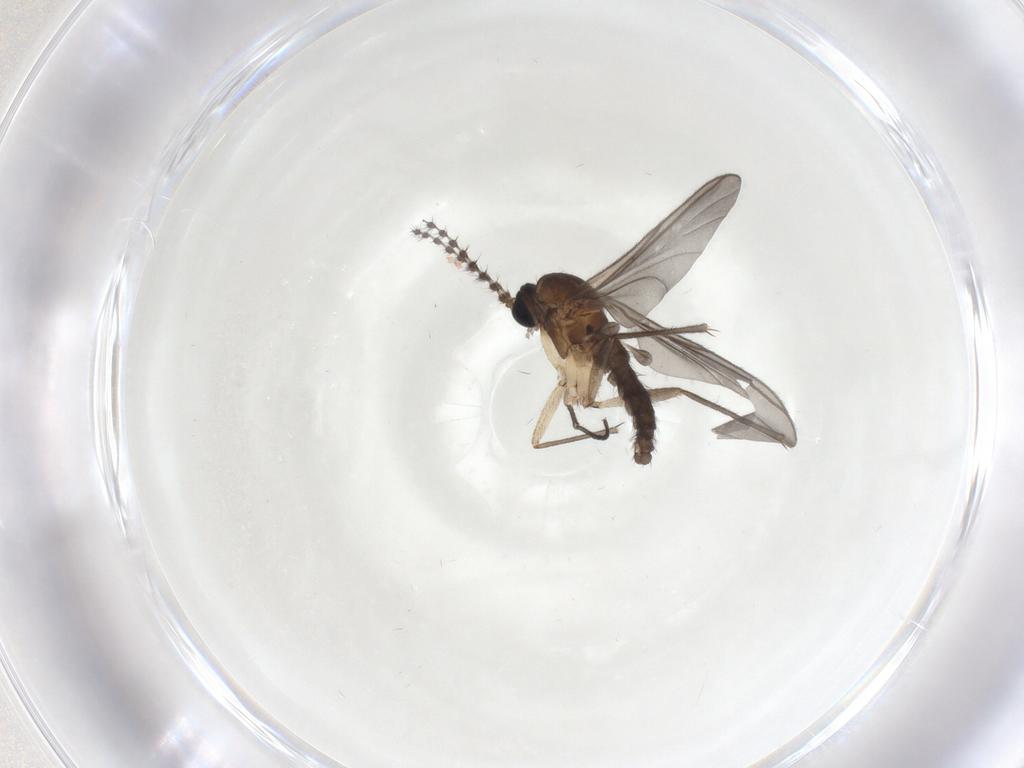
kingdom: Animalia
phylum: Arthropoda
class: Insecta
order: Diptera
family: Sciaridae
